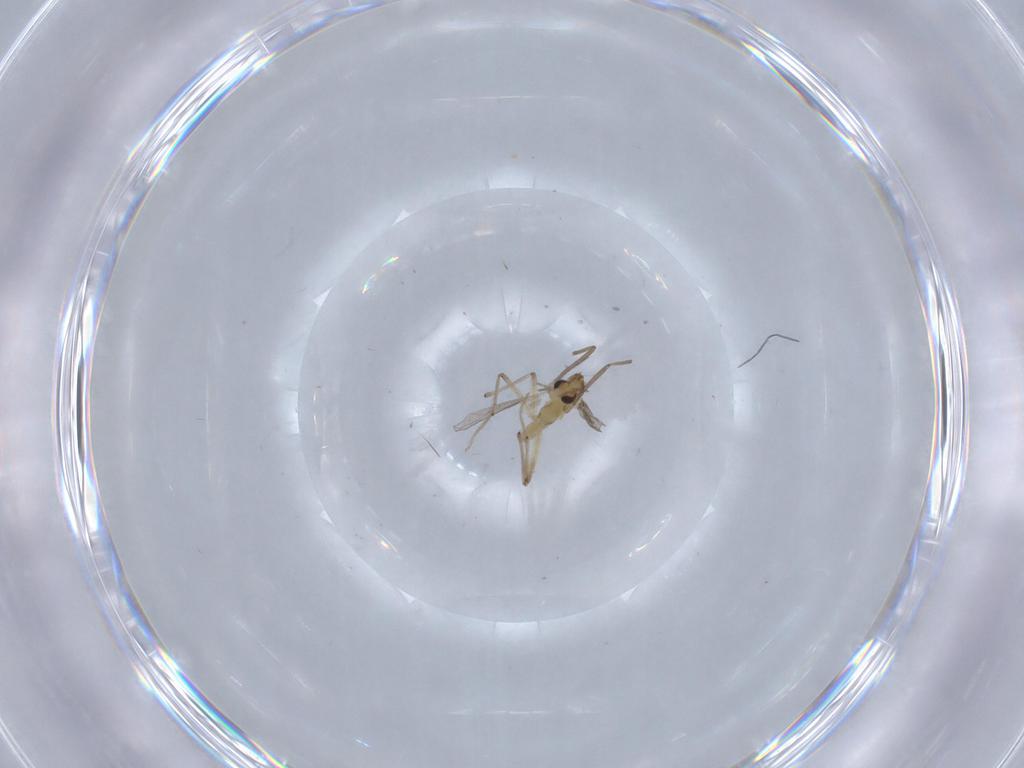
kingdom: Animalia
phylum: Arthropoda
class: Insecta
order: Diptera
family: Chironomidae
